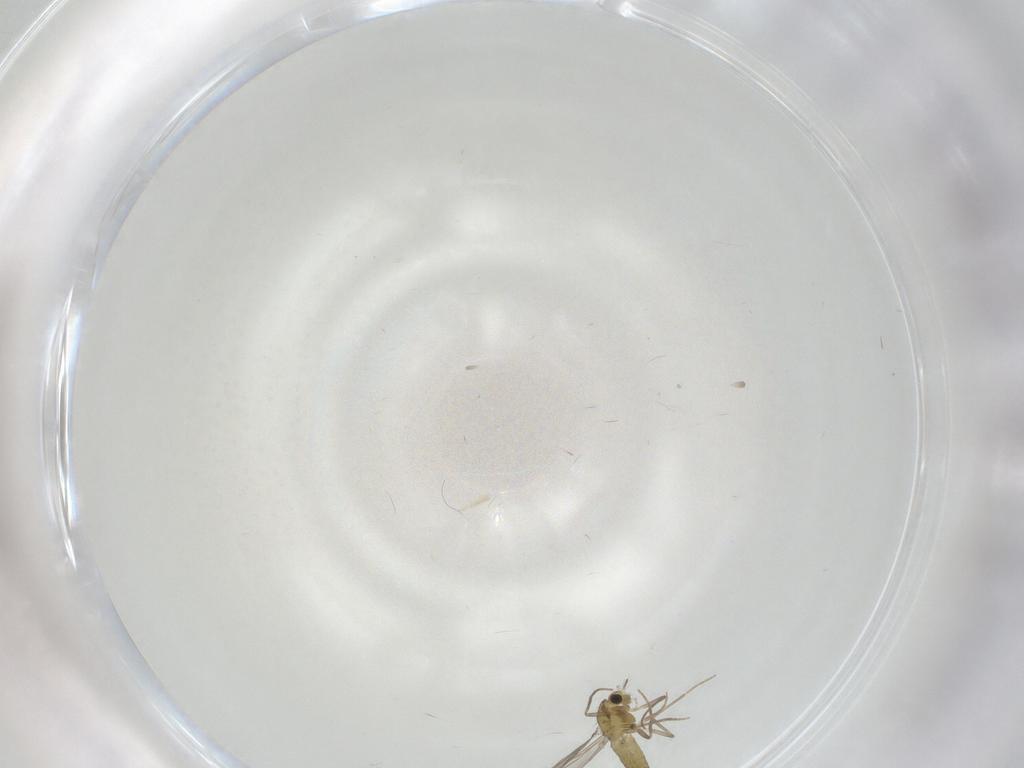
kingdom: Animalia
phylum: Arthropoda
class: Insecta
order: Diptera
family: Chironomidae
